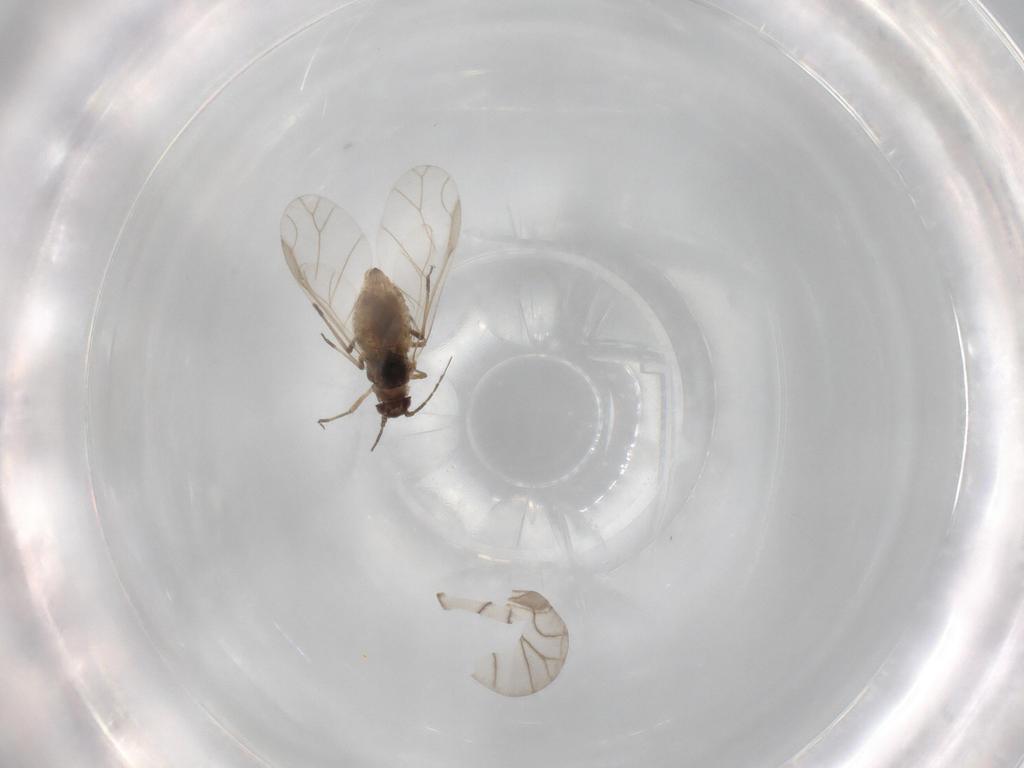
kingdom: Animalia
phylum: Arthropoda
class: Insecta
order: Hemiptera
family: Aphididae
